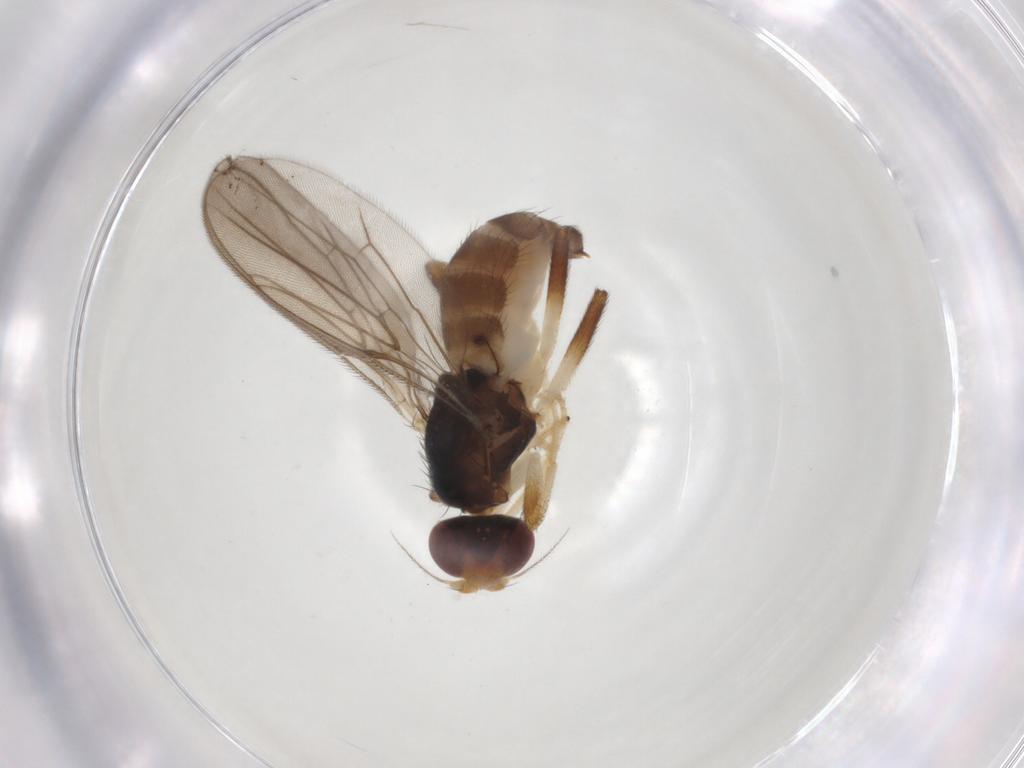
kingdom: Animalia
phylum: Arthropoda
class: Insecta
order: Diptera
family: Chloropidae
